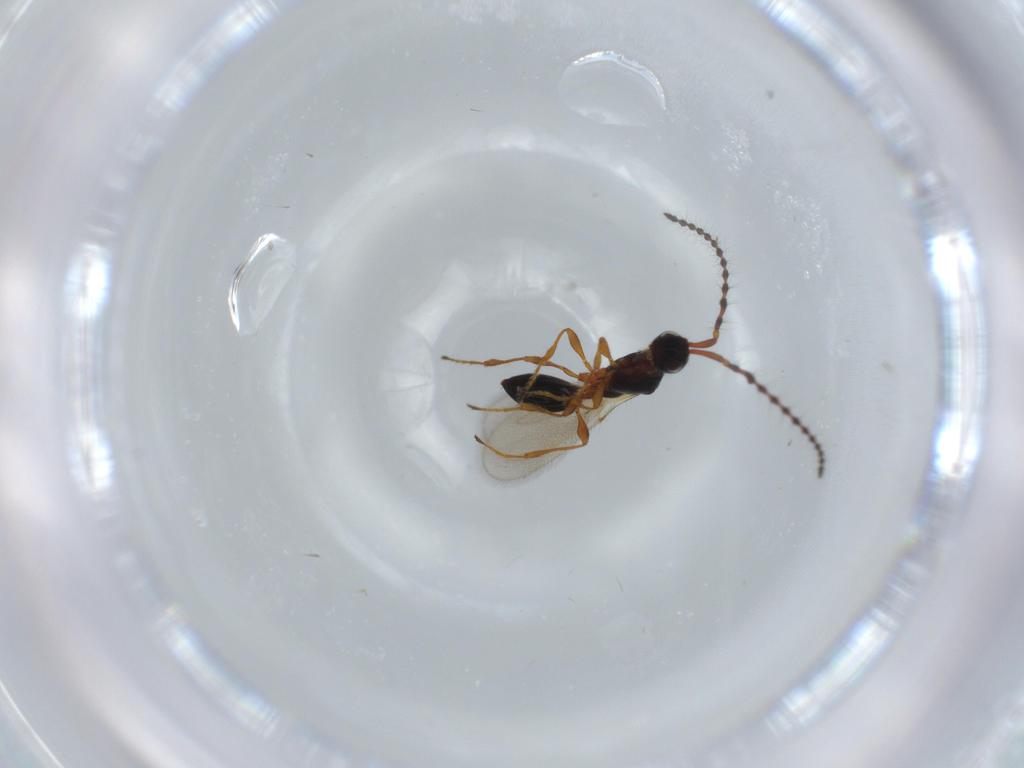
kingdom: Animalia
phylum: Arthropoda
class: Insecta
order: Hymenoptera
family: Diapriidae
